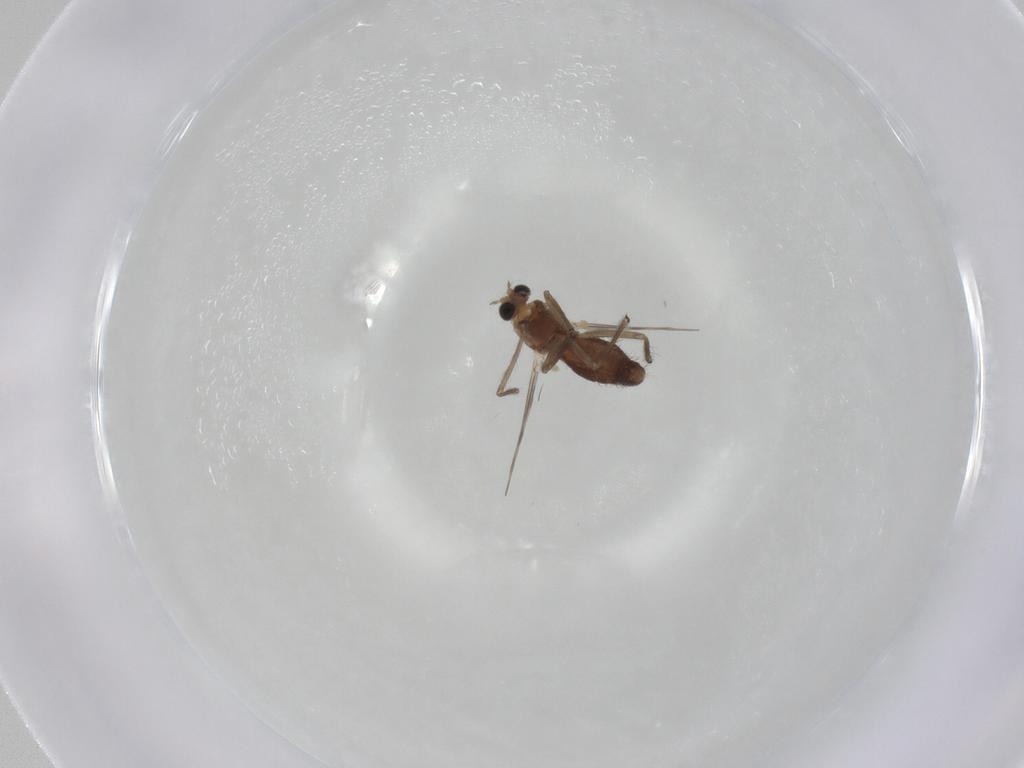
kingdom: Animalia
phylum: Arthropoda
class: Insecta
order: Diptera
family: Chironomidae
